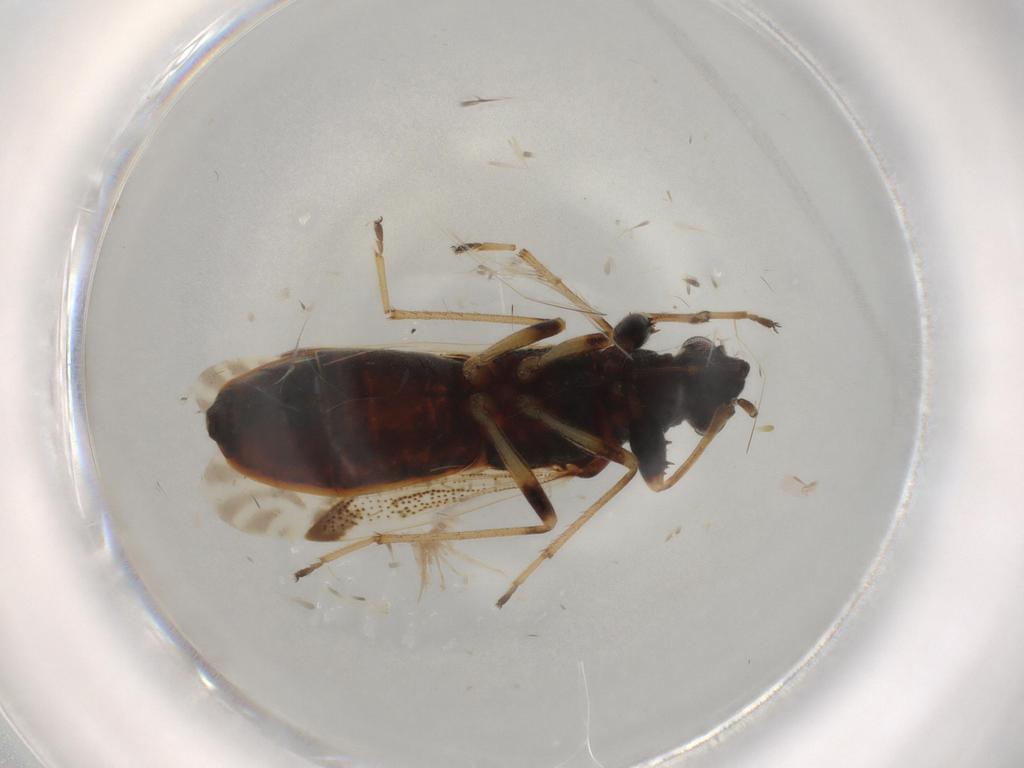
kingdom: Animalia
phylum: Arthropoda
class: Insecta
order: Hemiptera
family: Rhyparochromidae
